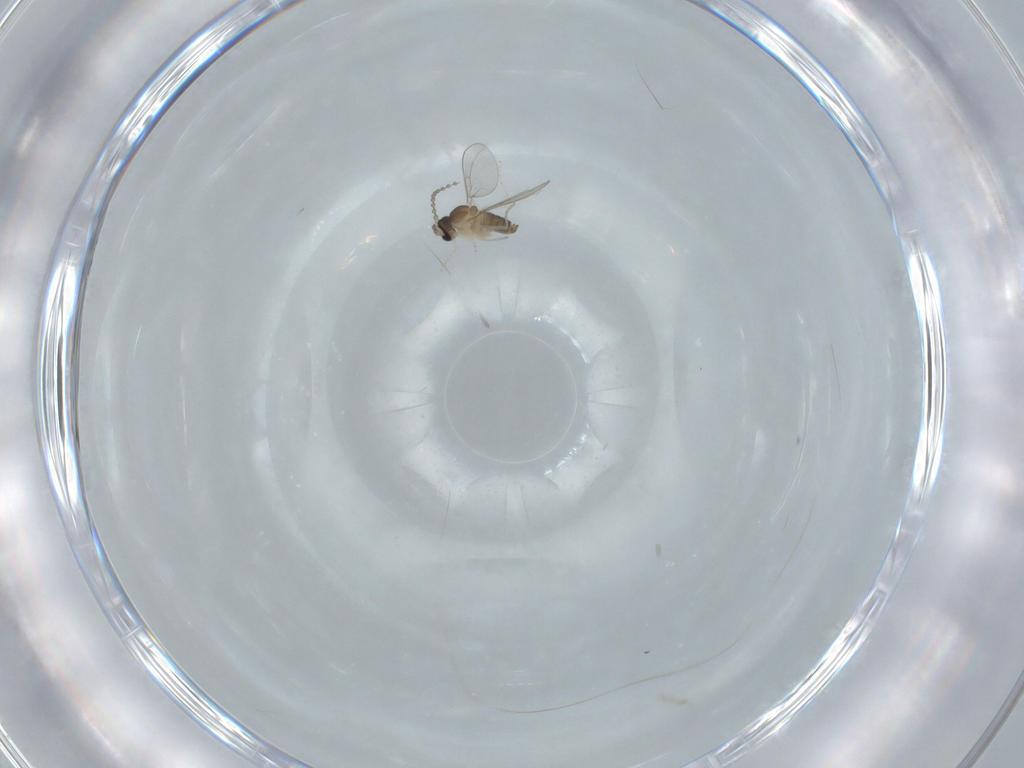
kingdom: Animalia
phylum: Arthropoda
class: Insecta
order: Diptera
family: Cecidomyiidae
